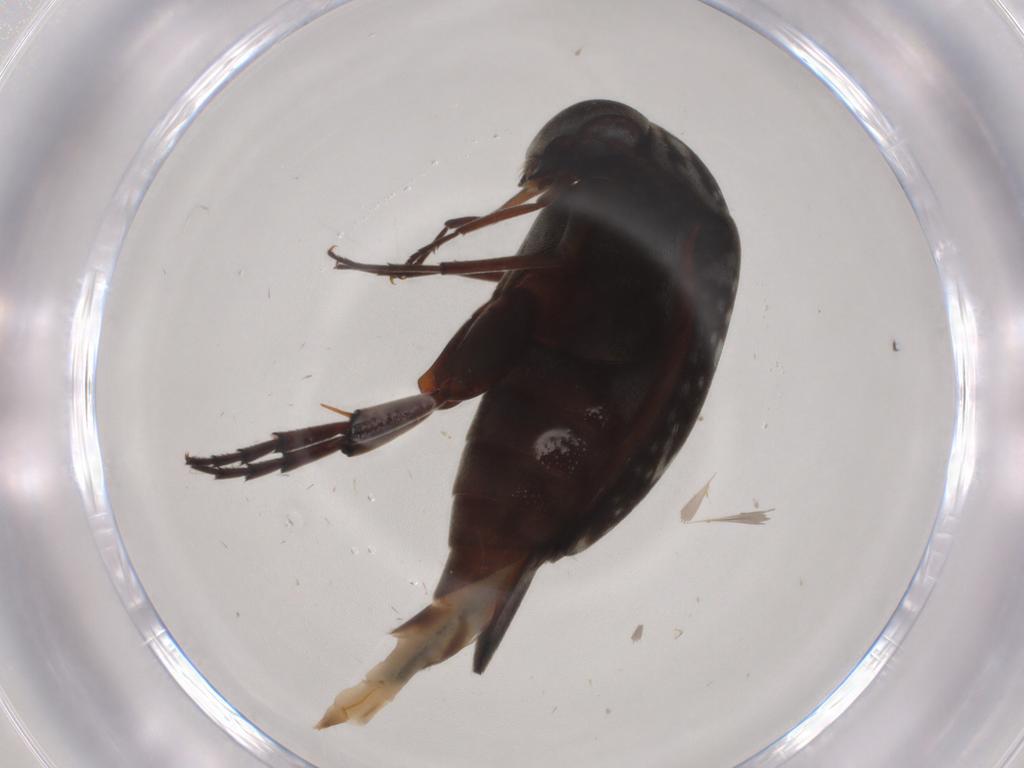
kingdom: Animalia
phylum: Arthropoda
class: Insecta
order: Coleoptera
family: Mordellidae
